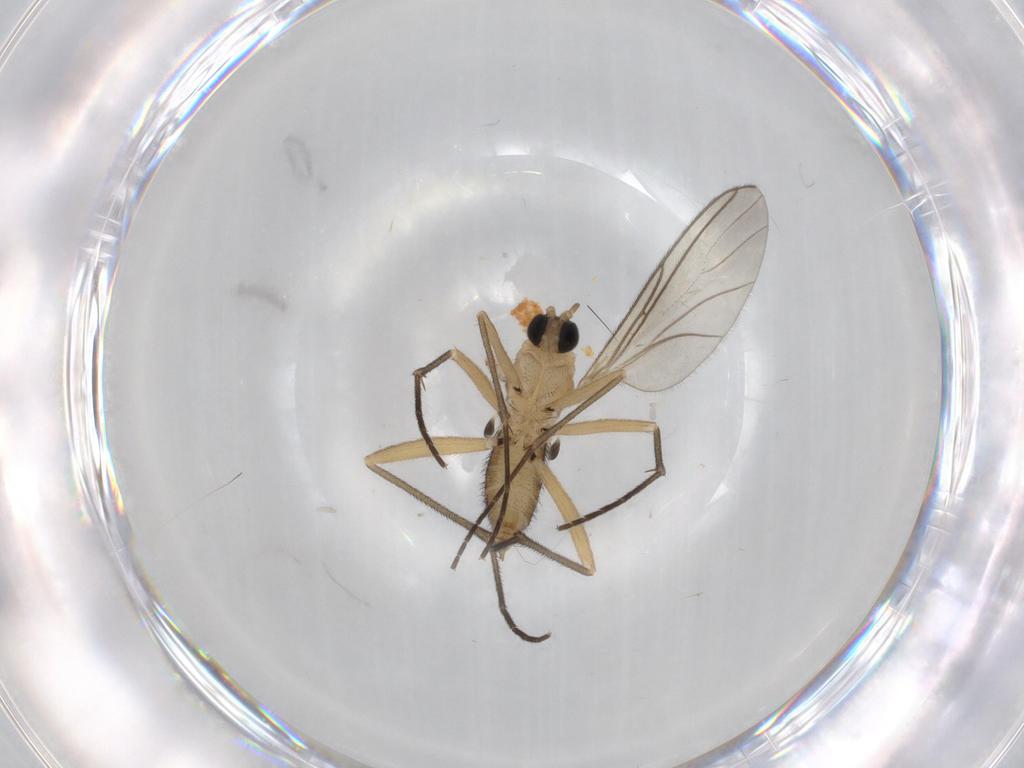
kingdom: Animalia
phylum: Arthropoda
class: Insecta
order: Diptera
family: Sciaridae
